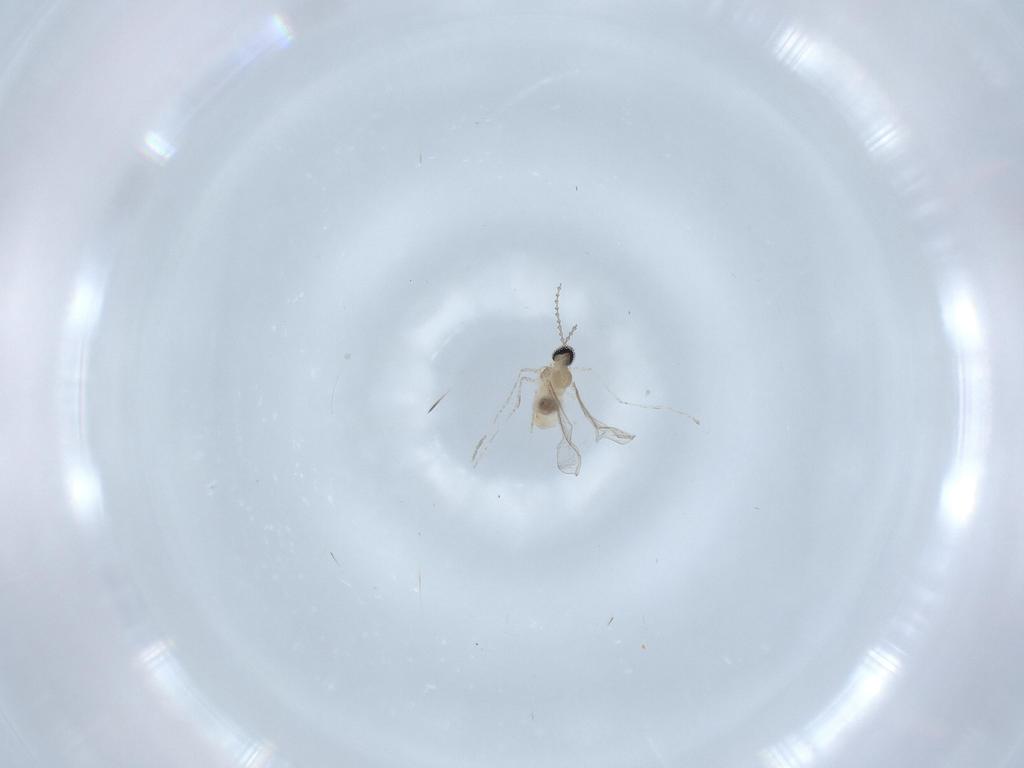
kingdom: Animalia
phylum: Arthropoda
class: Insecta
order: Diptera
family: Cecidomyiidae
